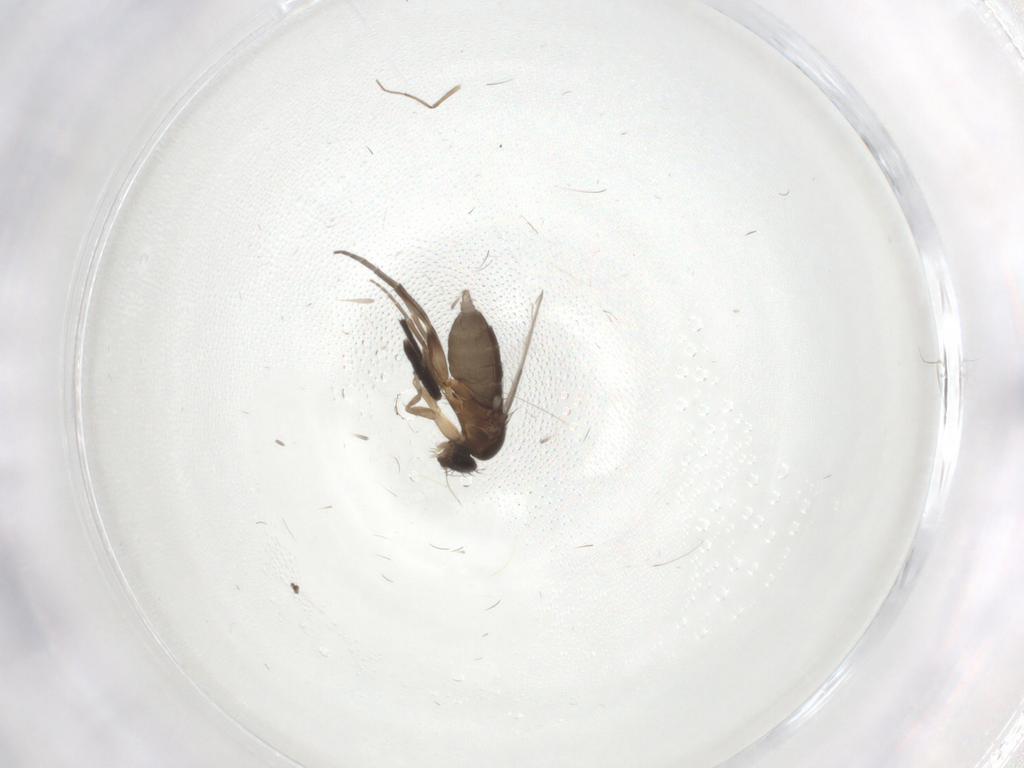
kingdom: Animalia
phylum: Arthropoda
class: Insecta
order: Diptera
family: Phoridae
